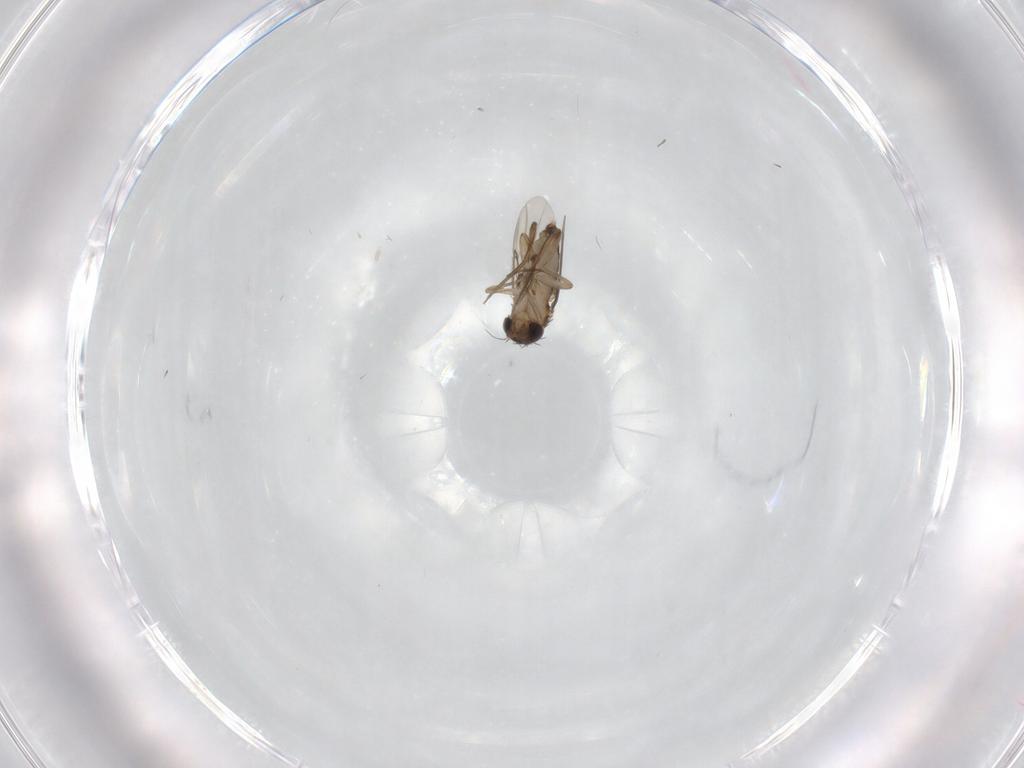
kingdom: Animalia
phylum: Arthropoda
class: Insecta
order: Diptera
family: Phoridae
